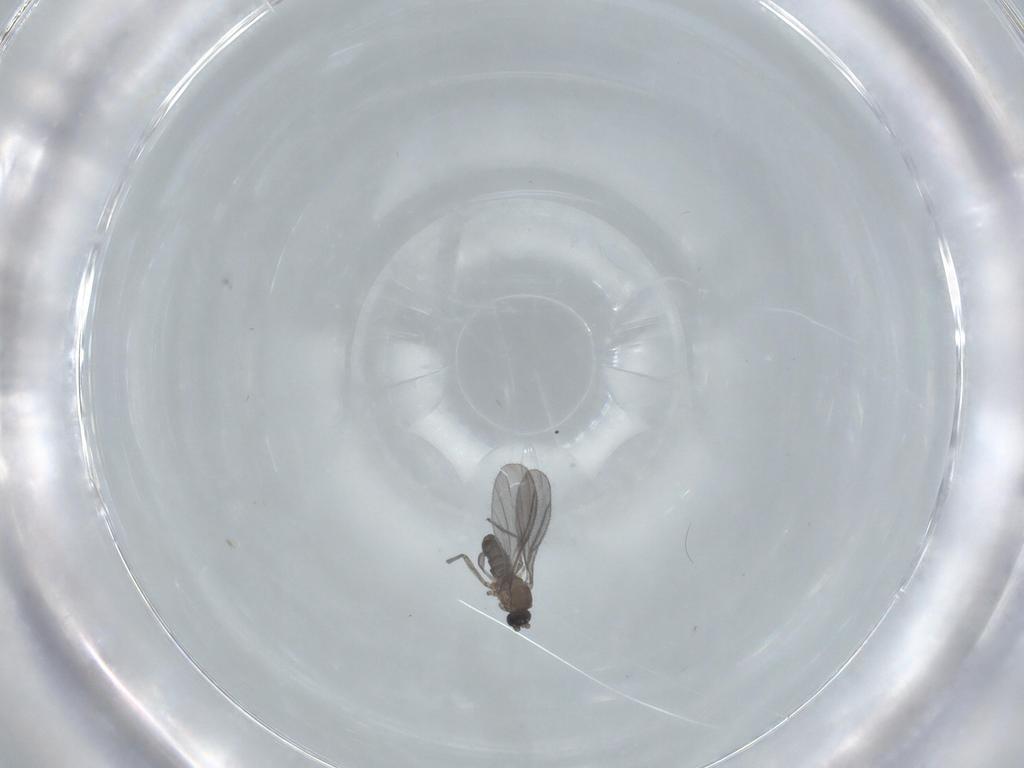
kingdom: Animalia
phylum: Arthropoda
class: Insecta
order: Diptera
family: Sciaridae
